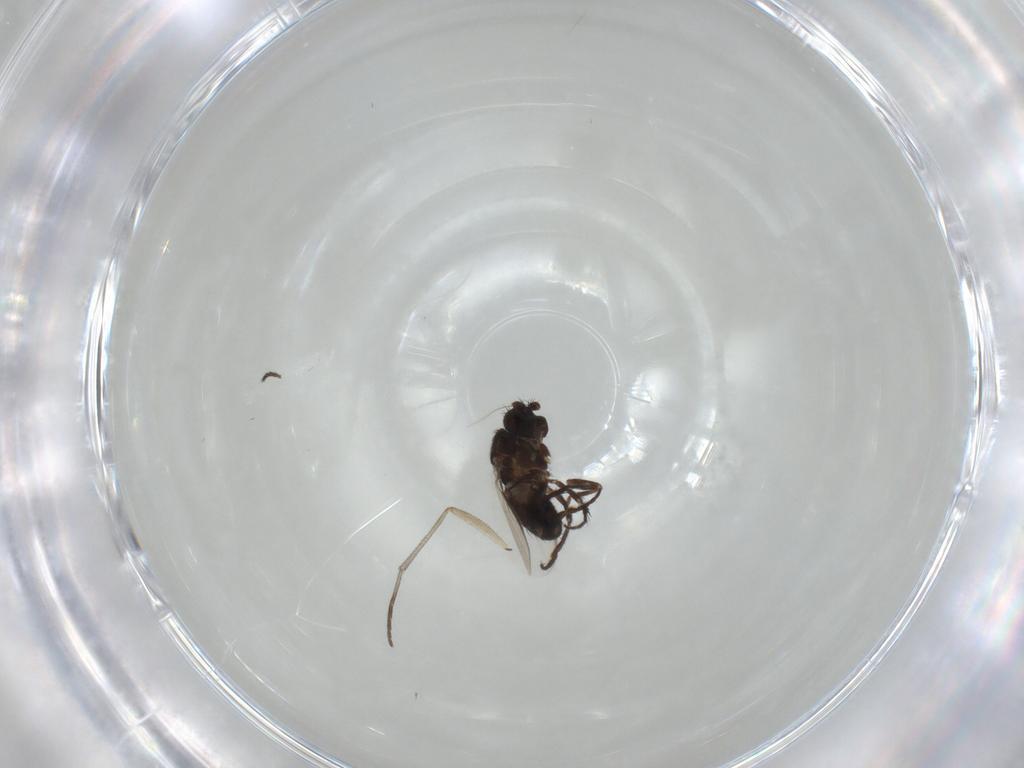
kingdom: Animalia
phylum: Arthropoda
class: Insecta
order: Diptera
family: Sphaeroceridae
